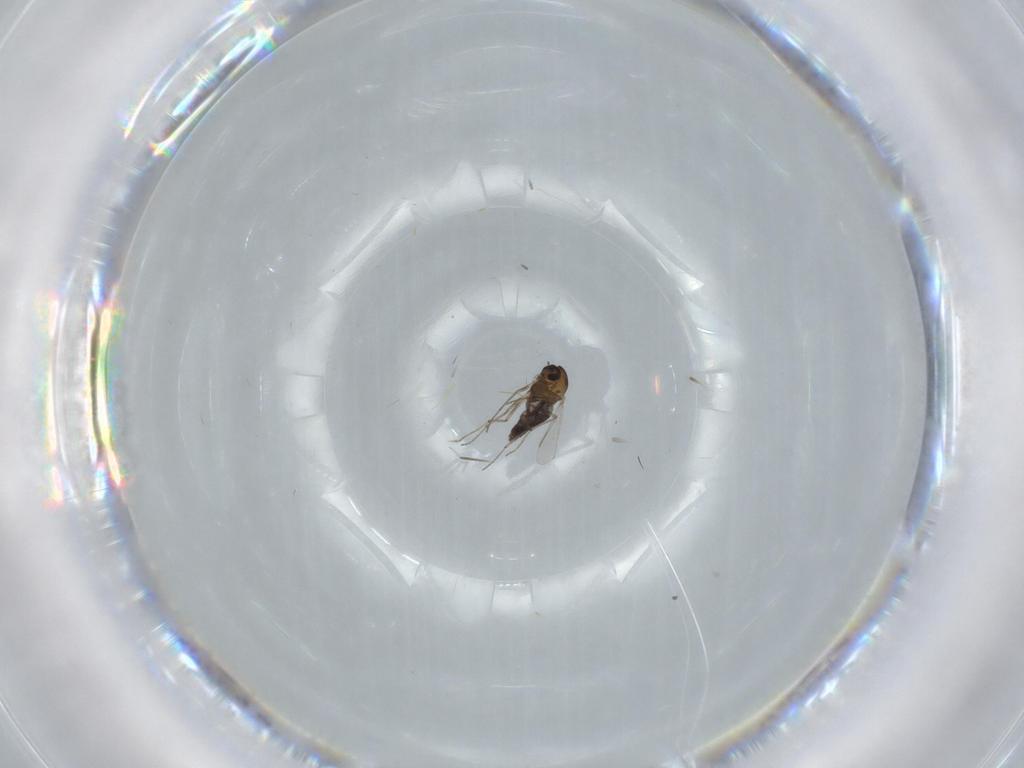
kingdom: Animalia
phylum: Arthropoda
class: Insecta
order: Diptera
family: Chironomidae
